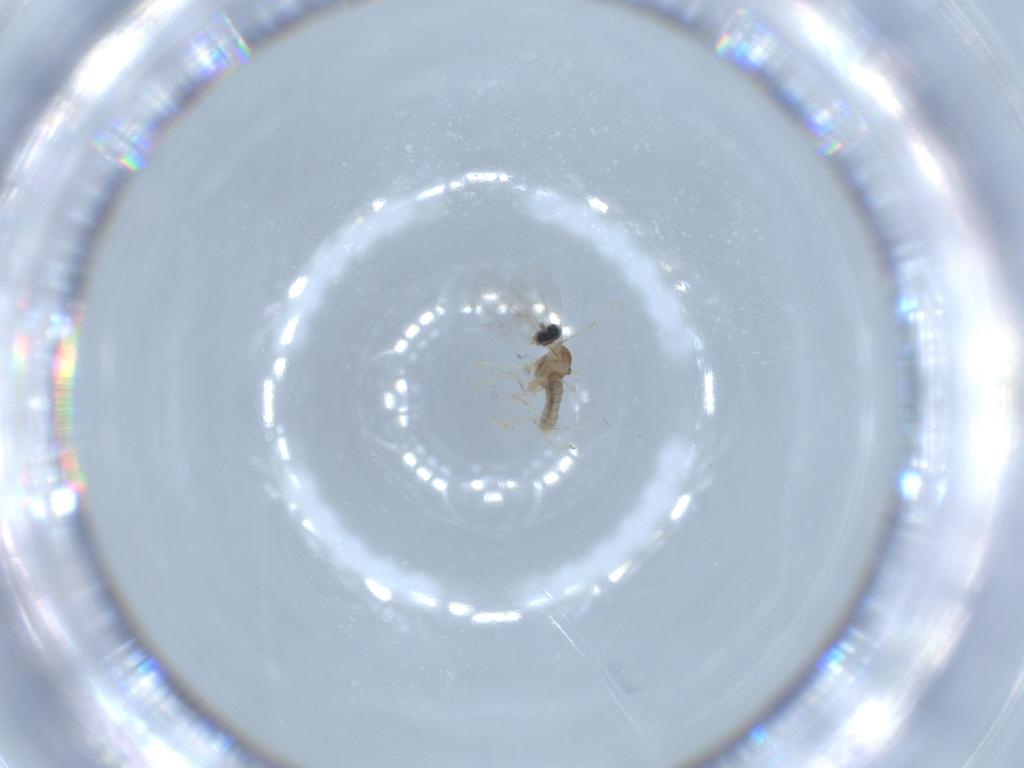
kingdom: Animalia
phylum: Arthropoda
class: Insecta
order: Diptera
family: Cecidomyiidae
